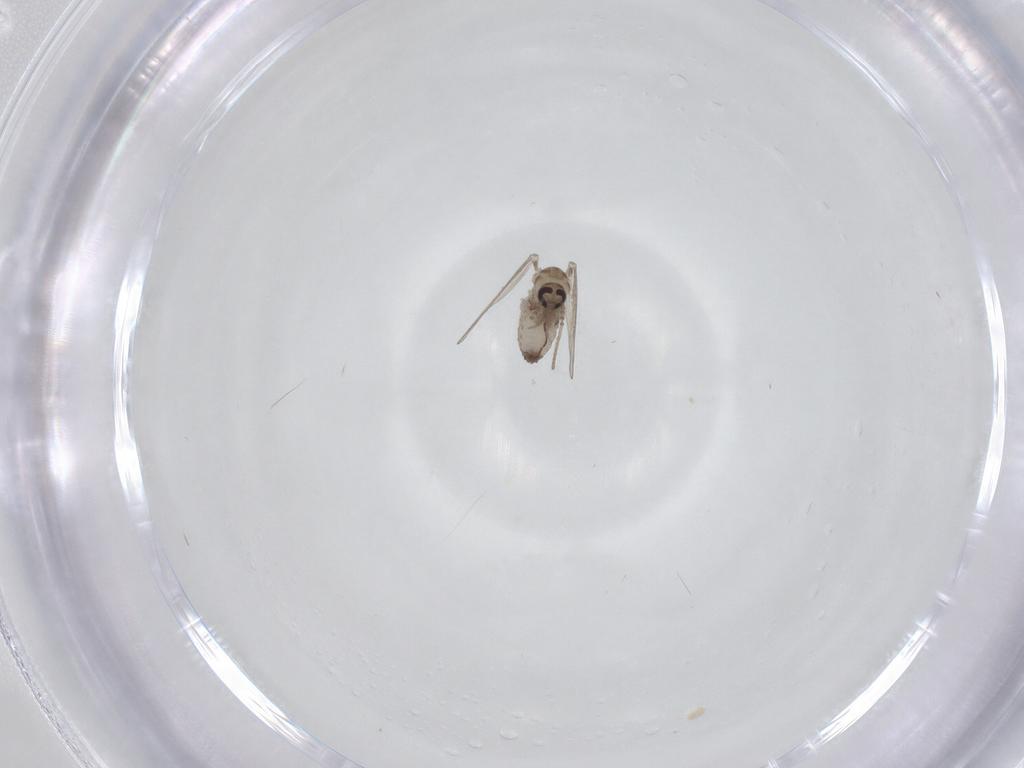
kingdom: Animalia
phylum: Arthropoda
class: Insecta
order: Diptera
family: Psychodidae
